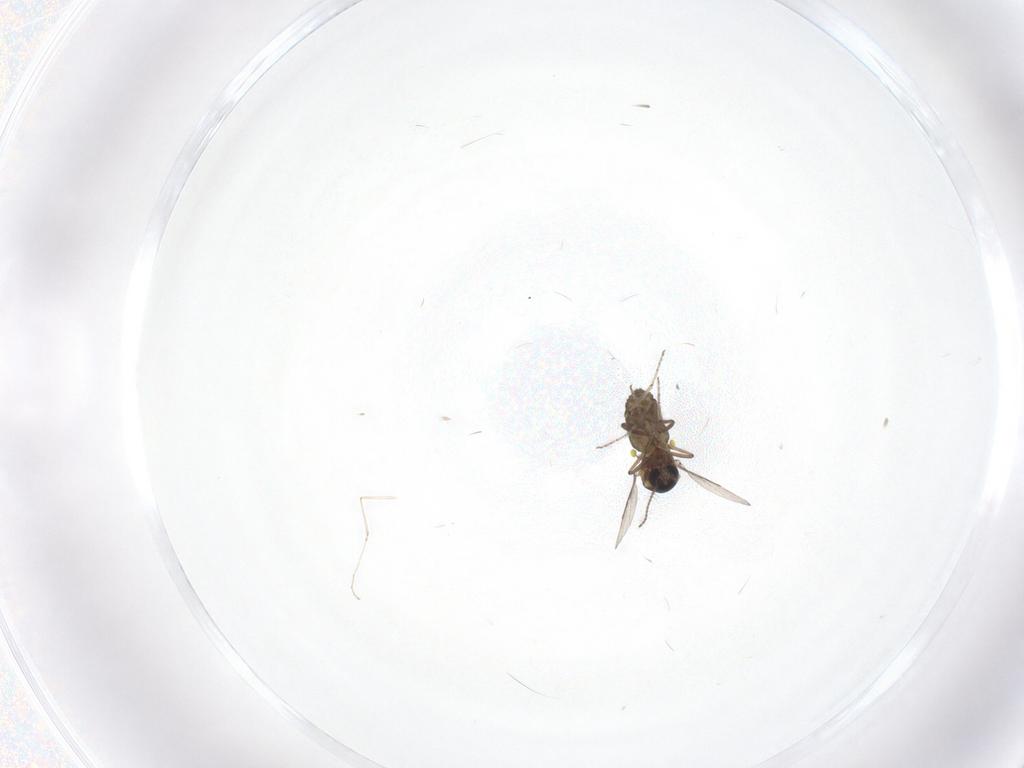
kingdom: Animalia
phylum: Arthropoda
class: Insecta
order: Diptera
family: Ceratopogonidae
